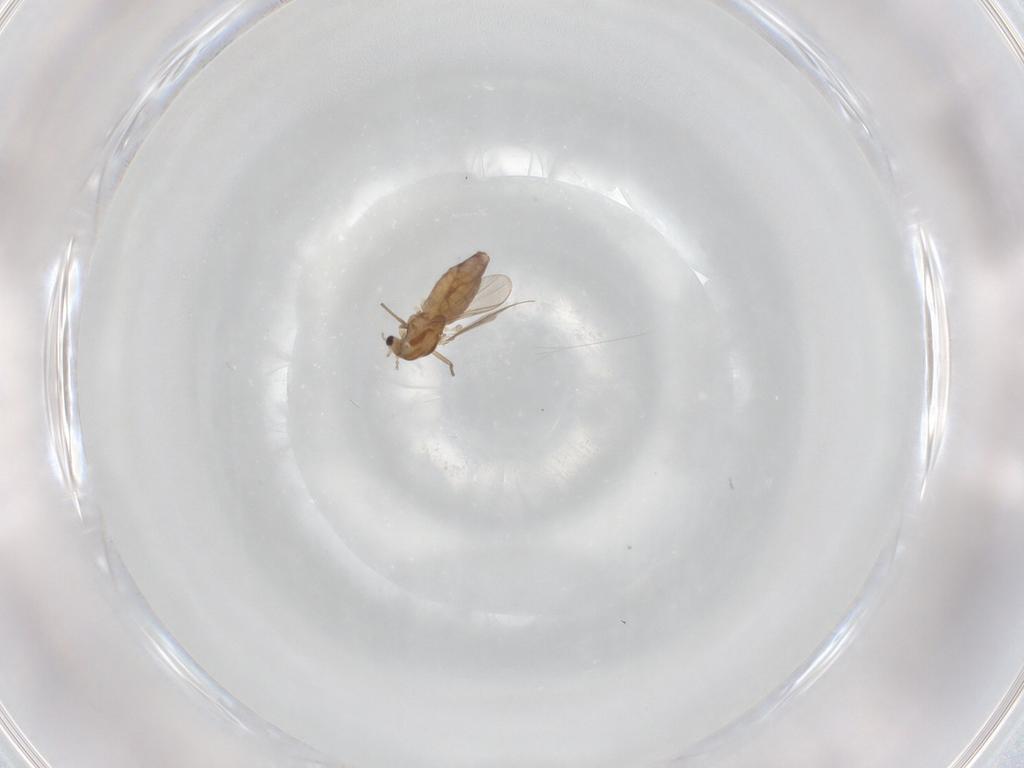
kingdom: Animalia
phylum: Arthropoda
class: Insecta
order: Diptera
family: Chironomidae
